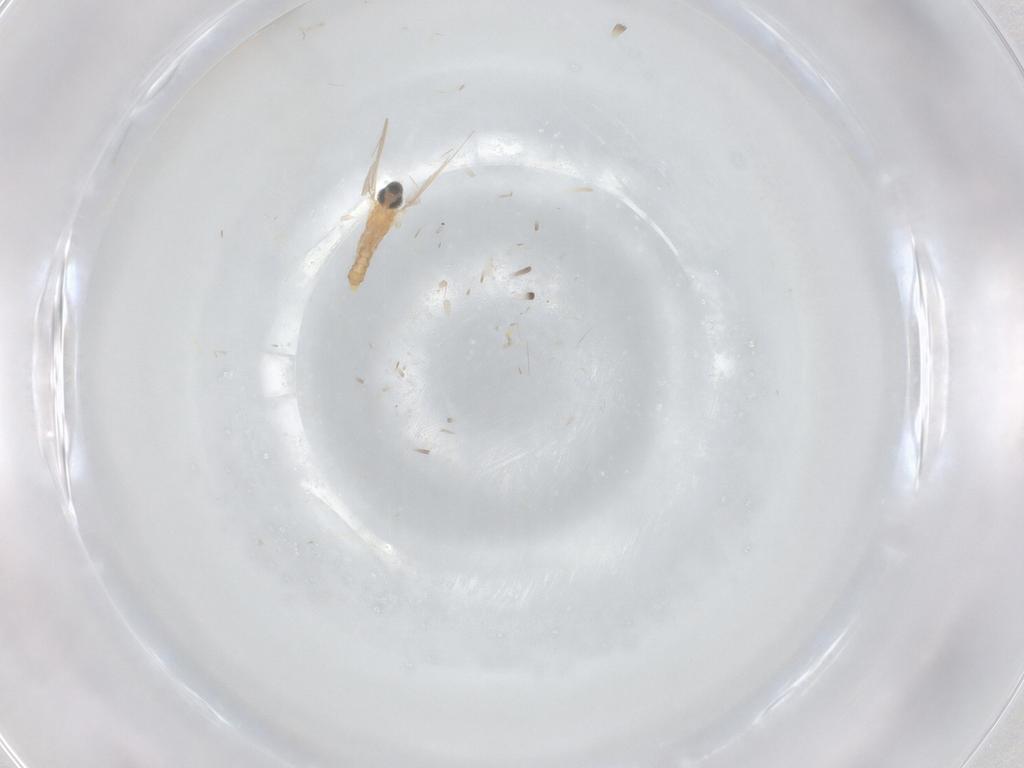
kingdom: Animalia
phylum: Arthropoda
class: Insecta
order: Diptera
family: Cecidomyiidae
